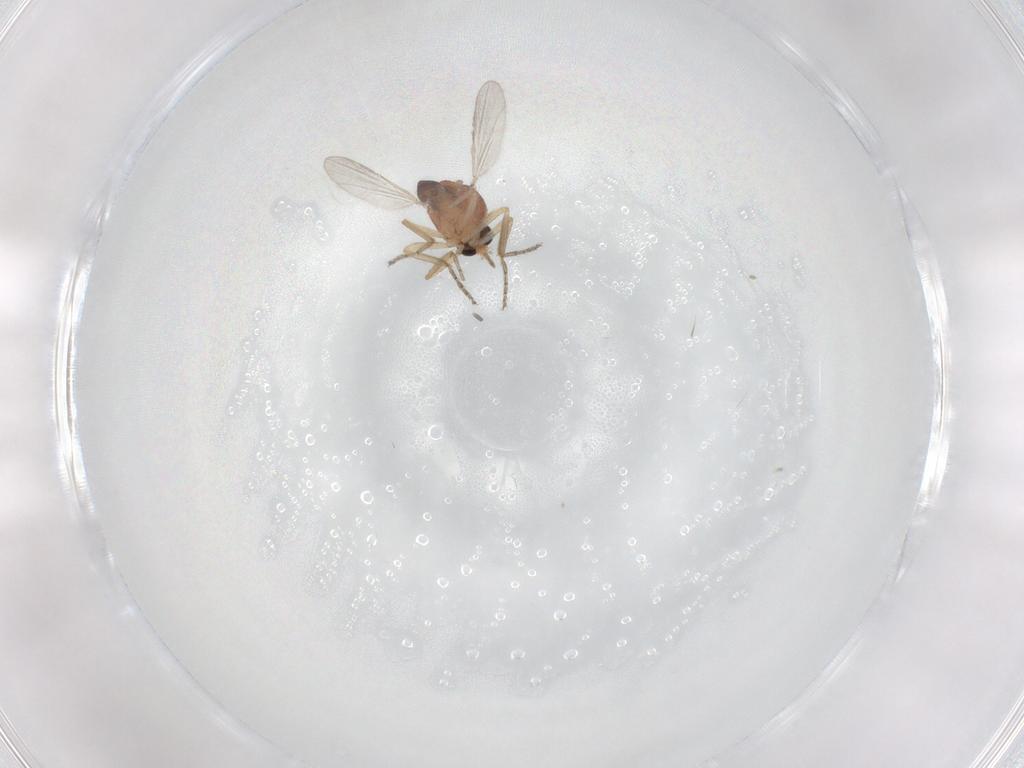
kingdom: Animalia
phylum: Arthropoda
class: Insecta
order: Diptera
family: Ceratopogonidae
